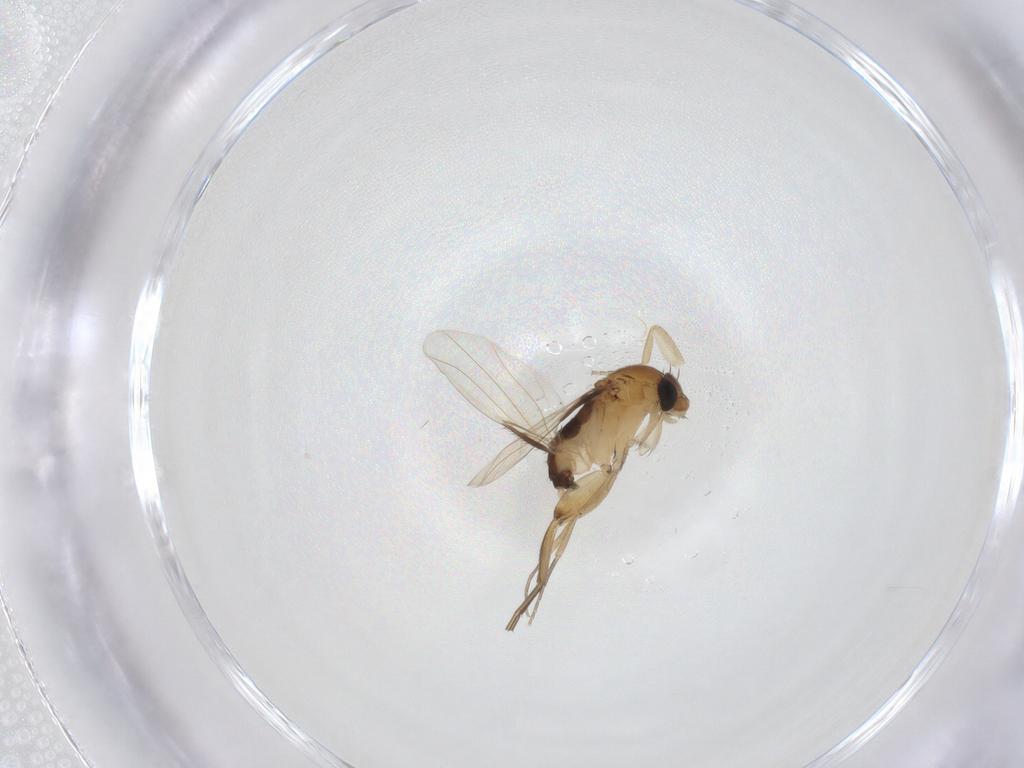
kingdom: Animalia
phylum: Arthropoda
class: Insecta
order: Diptera
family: Phoridae
